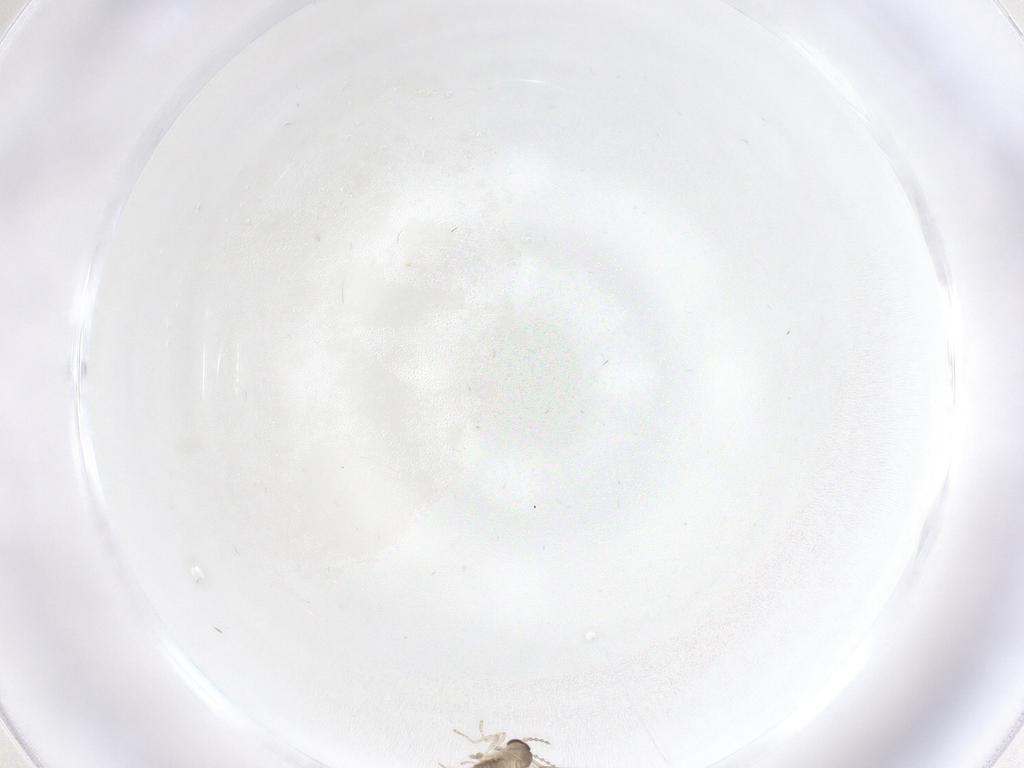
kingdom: Animalia
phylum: Arthropoda
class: Insecta
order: Diptera
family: Cecidomyiidae
